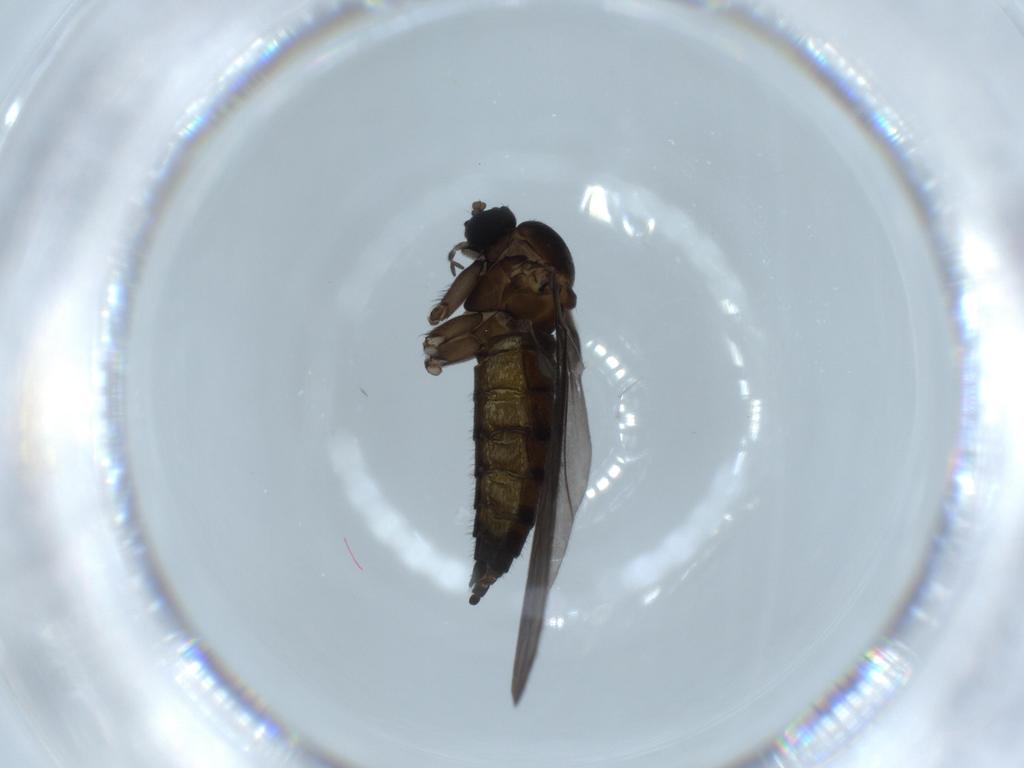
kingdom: Animalia
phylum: Arthropoda
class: Insecta
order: Diptera
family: Sciaridae
